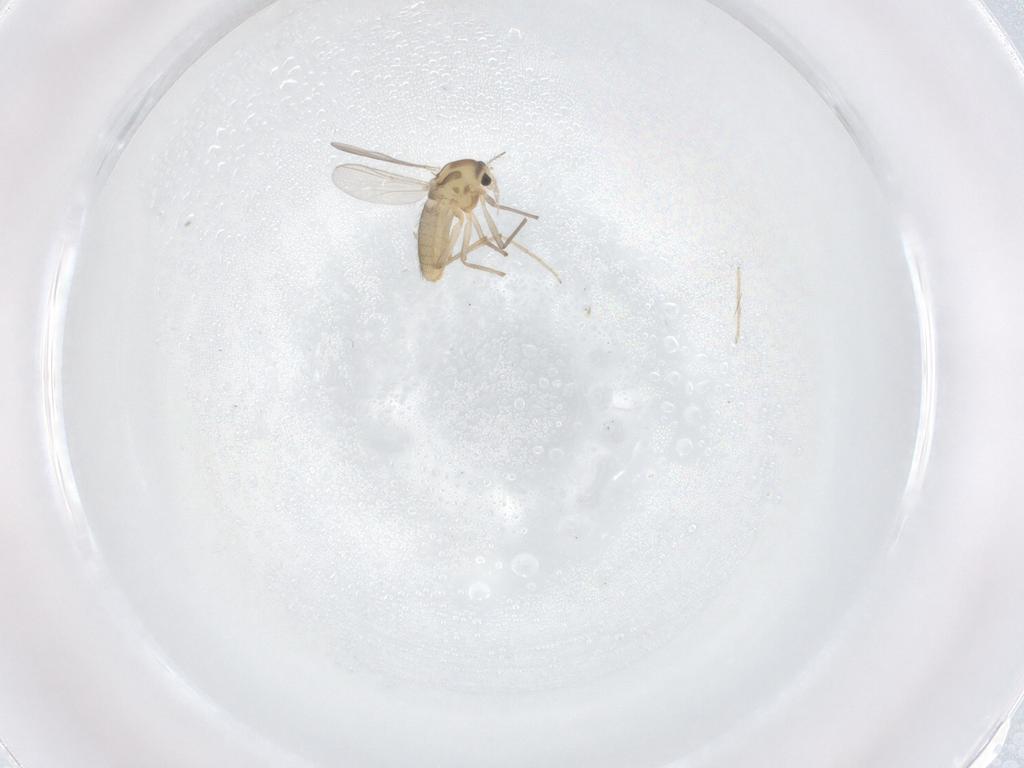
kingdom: Animalia
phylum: Arthropoda
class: Insecta
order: Diptera
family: Chironomidae
